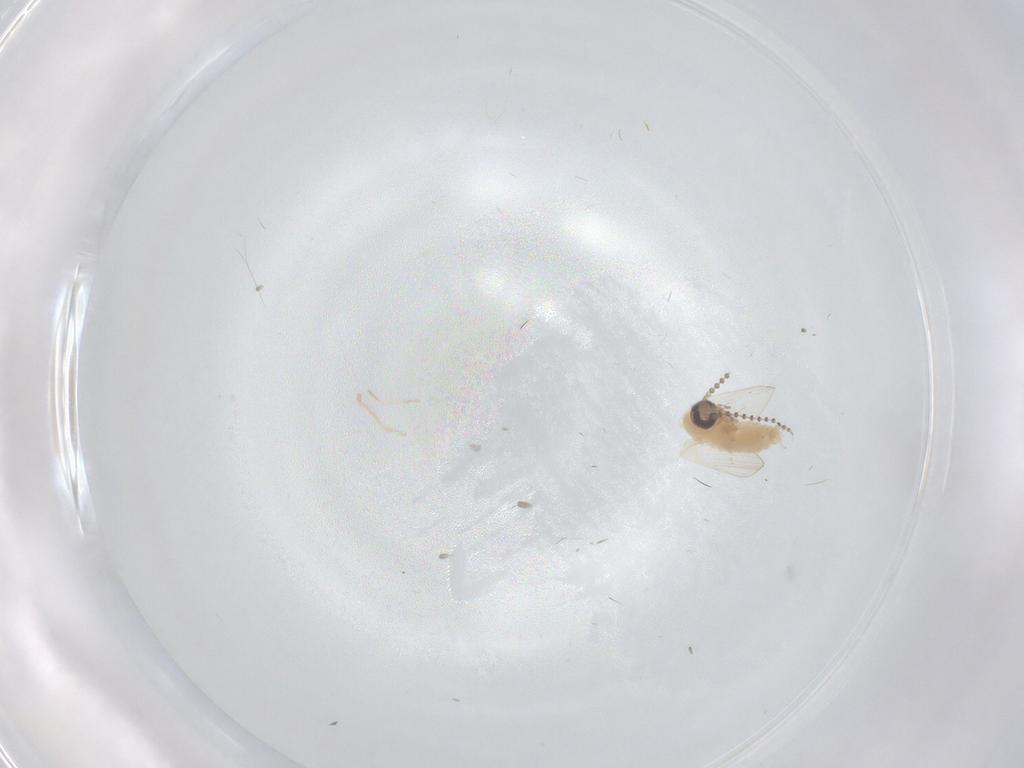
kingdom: Animalia
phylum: Arthropoda
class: Insecta
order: Diptera
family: Psychodidae
